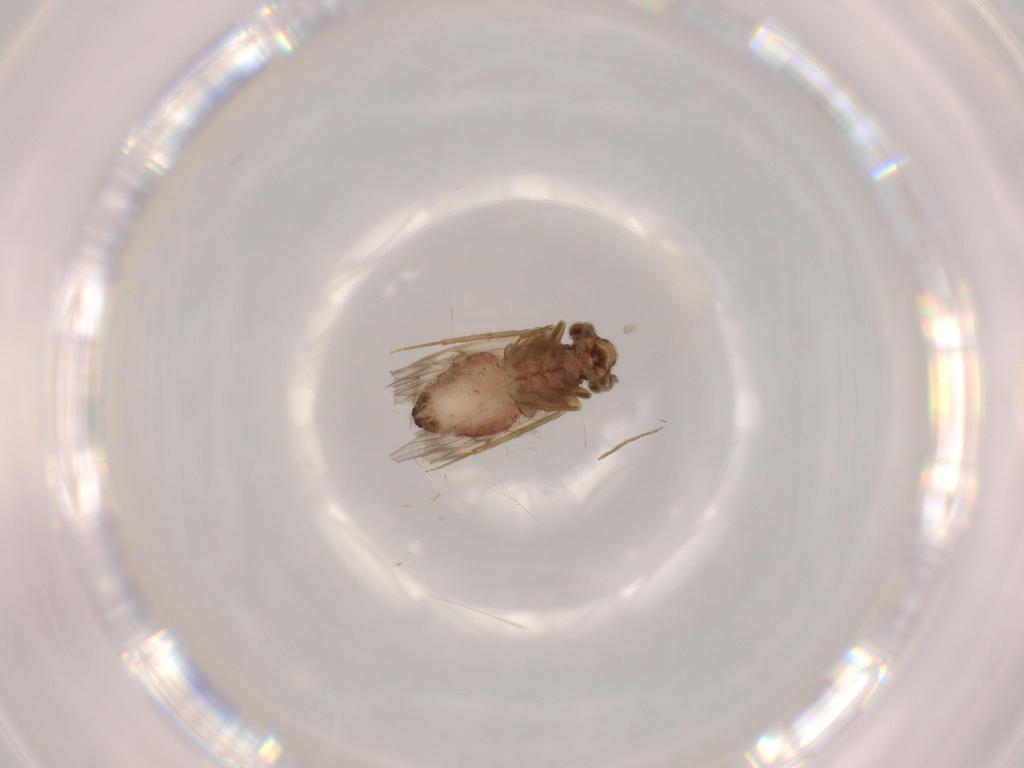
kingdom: Animalia
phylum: Arthropoda
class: Insecta
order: Psocodea
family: Lepidopsocidae
